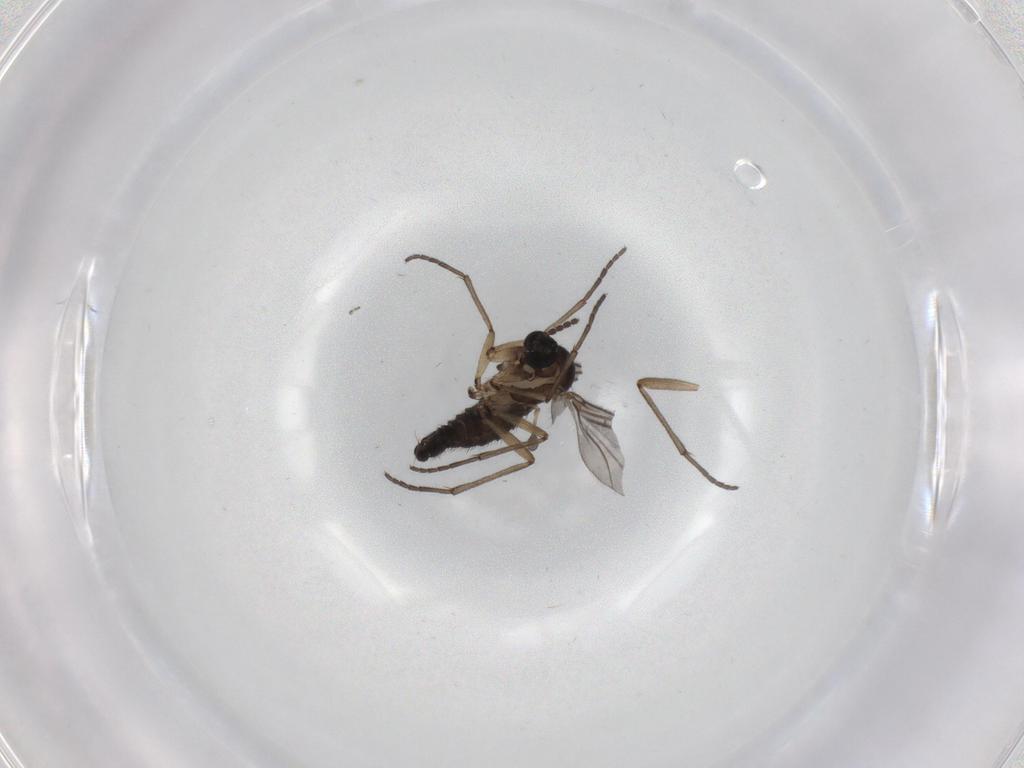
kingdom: Animalia
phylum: Arthropoda
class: Insecta
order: Diptera
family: Sciaridae
